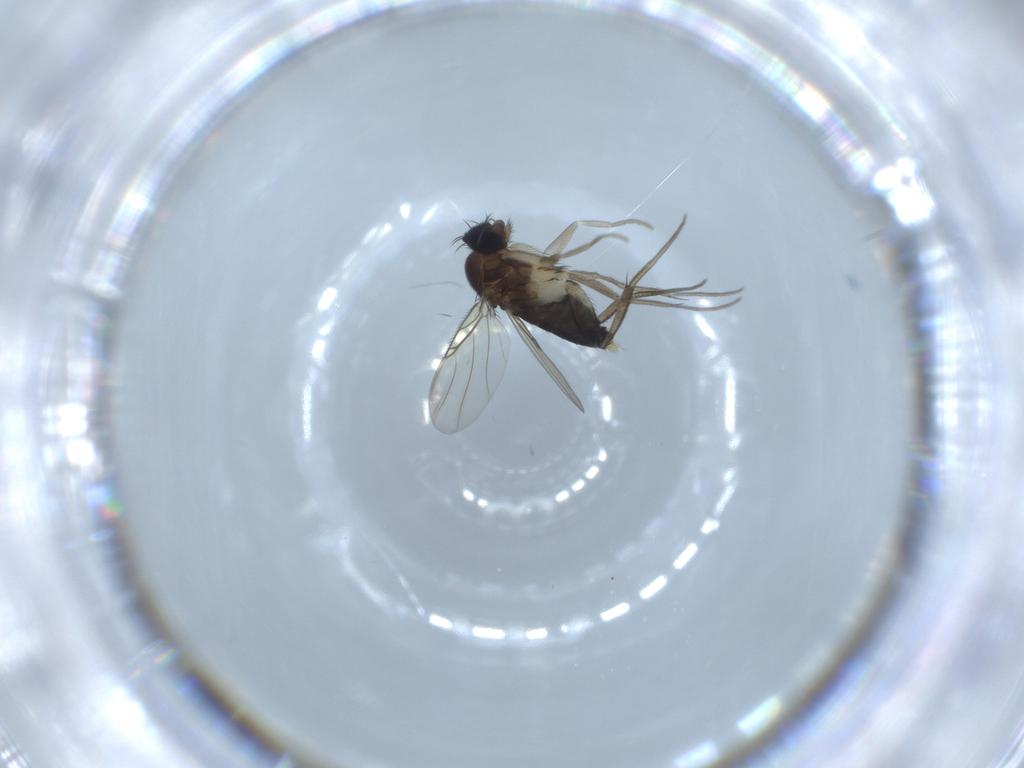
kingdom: Animalia
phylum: Arthropoda
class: Insecta
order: Diptera
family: Phoridae
